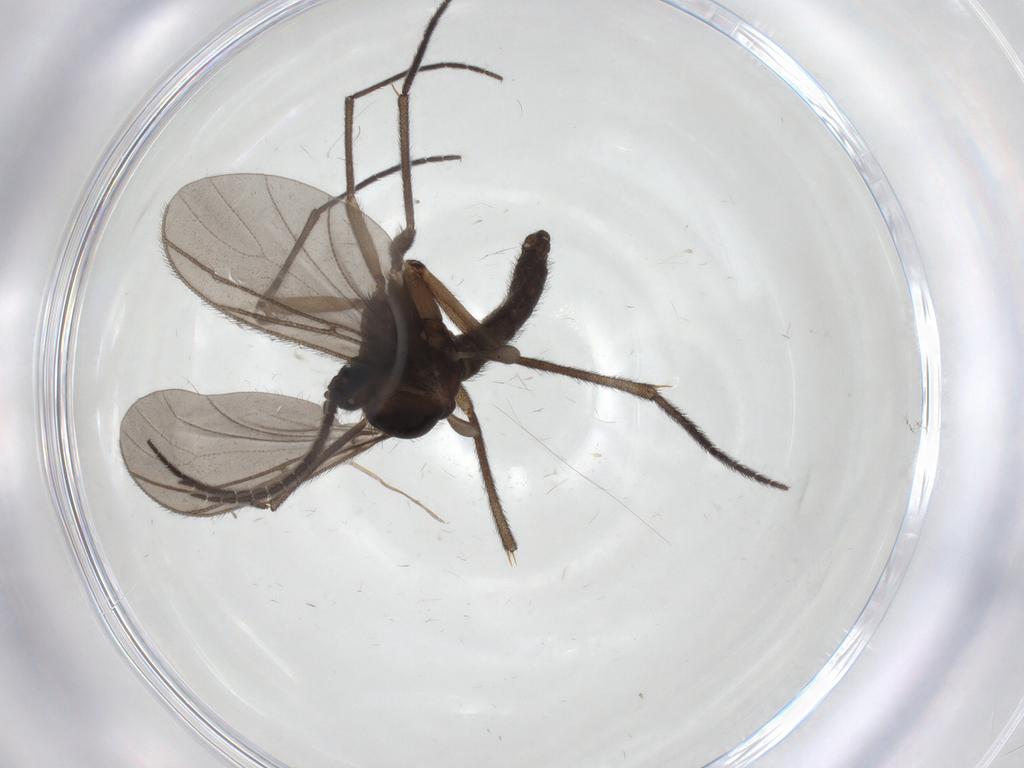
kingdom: Animalia
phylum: Arthropoda
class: Insecta
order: Diptera
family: Sciaridae
